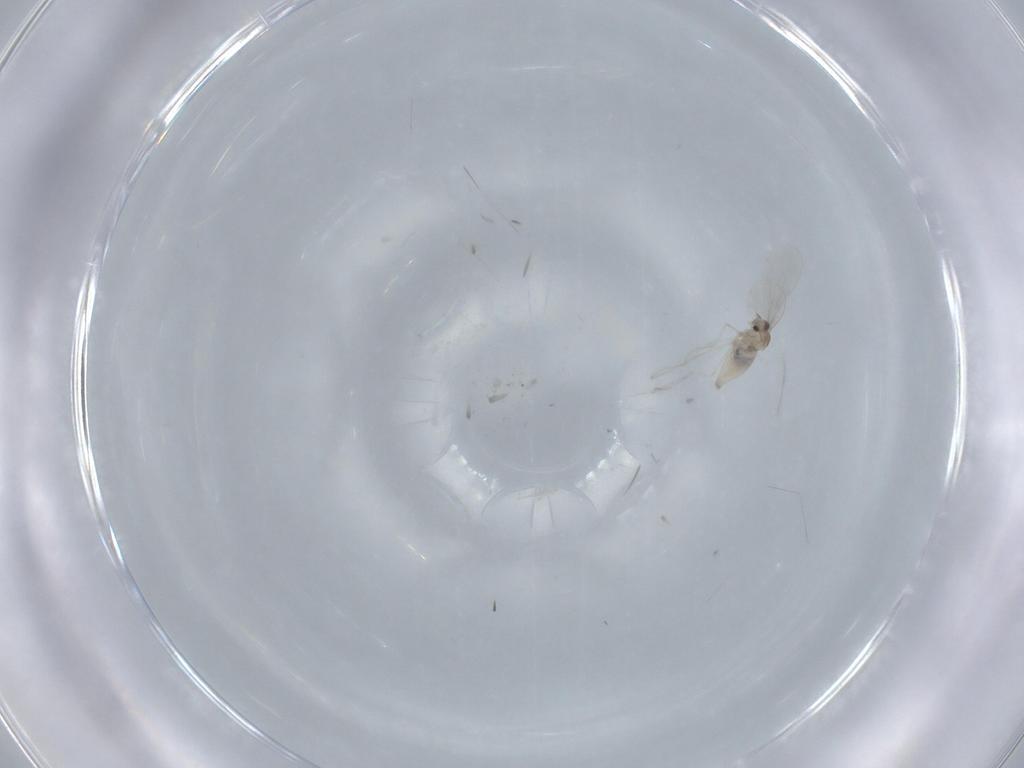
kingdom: Animalia
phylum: Arthropoda
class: Insecta
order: Diptera
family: Cecidomyiidae
